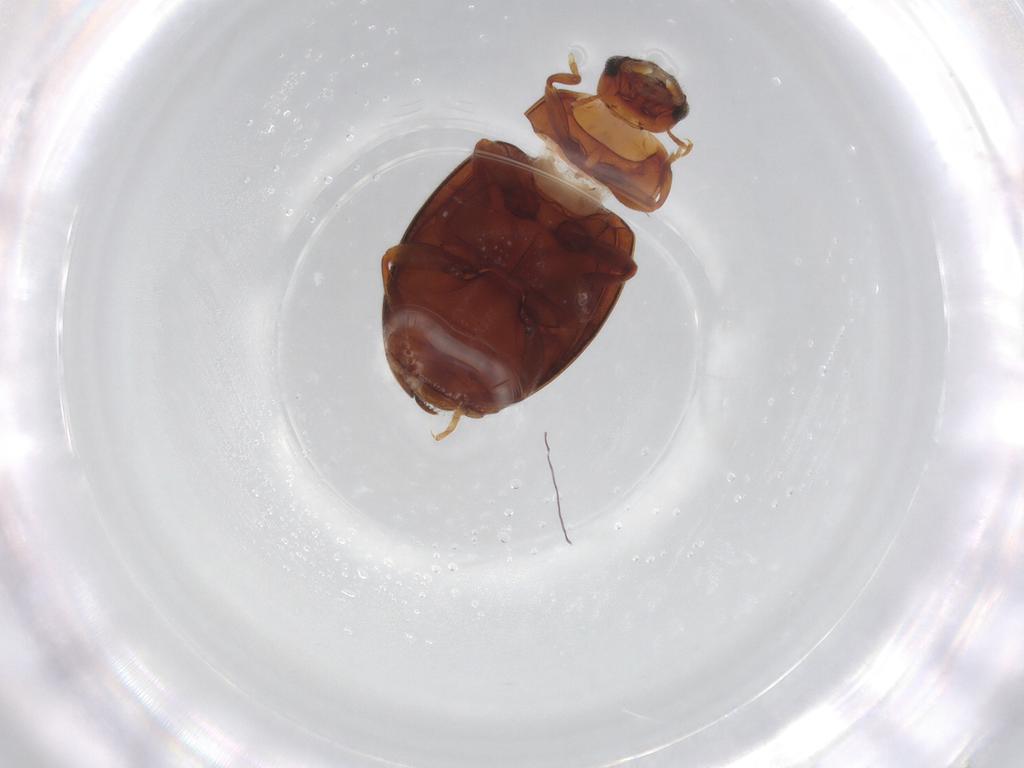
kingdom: Animalia
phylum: Arthropoda
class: Insecta
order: Coleoptera
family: Coccinellidae
